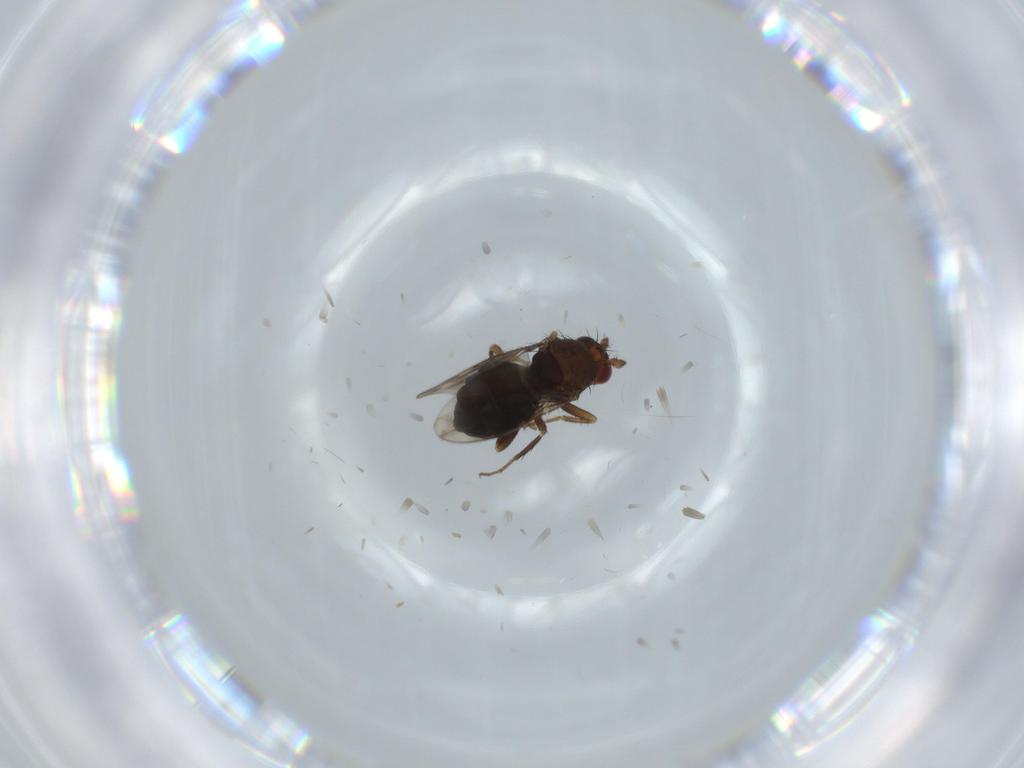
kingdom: Animalia
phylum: Arthropoda
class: Insecta
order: Diptera
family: Sphaeroceridae
